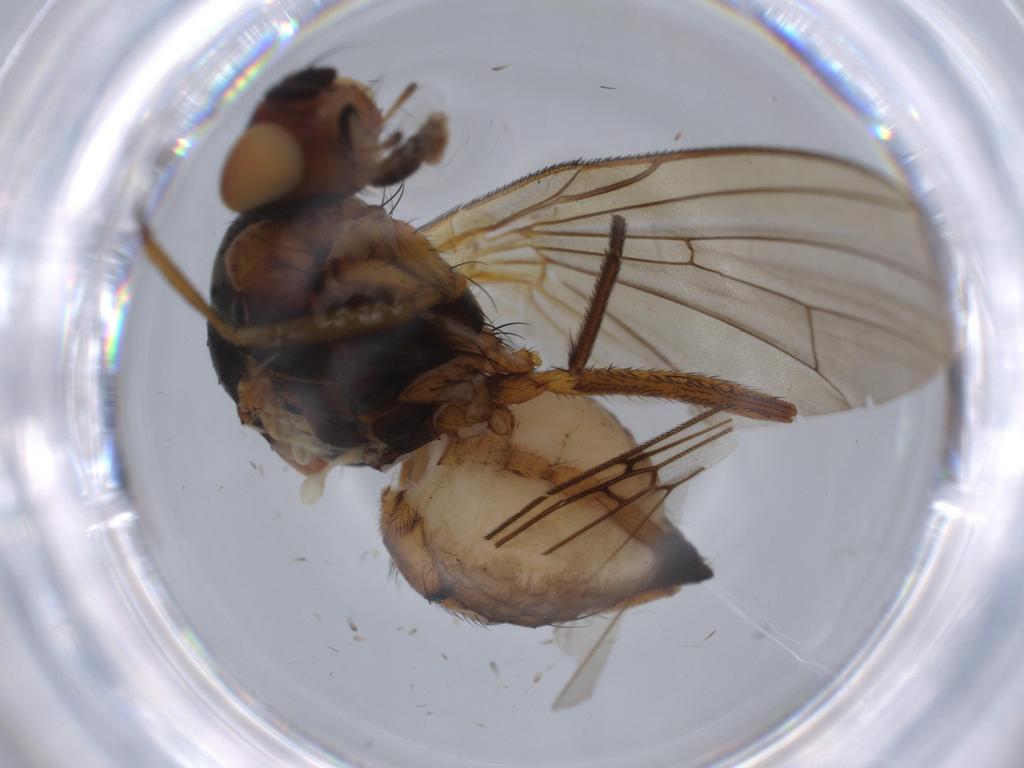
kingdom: Animalia
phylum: Arthropoda
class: Insecta
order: Diptera
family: Anthomyiidae
